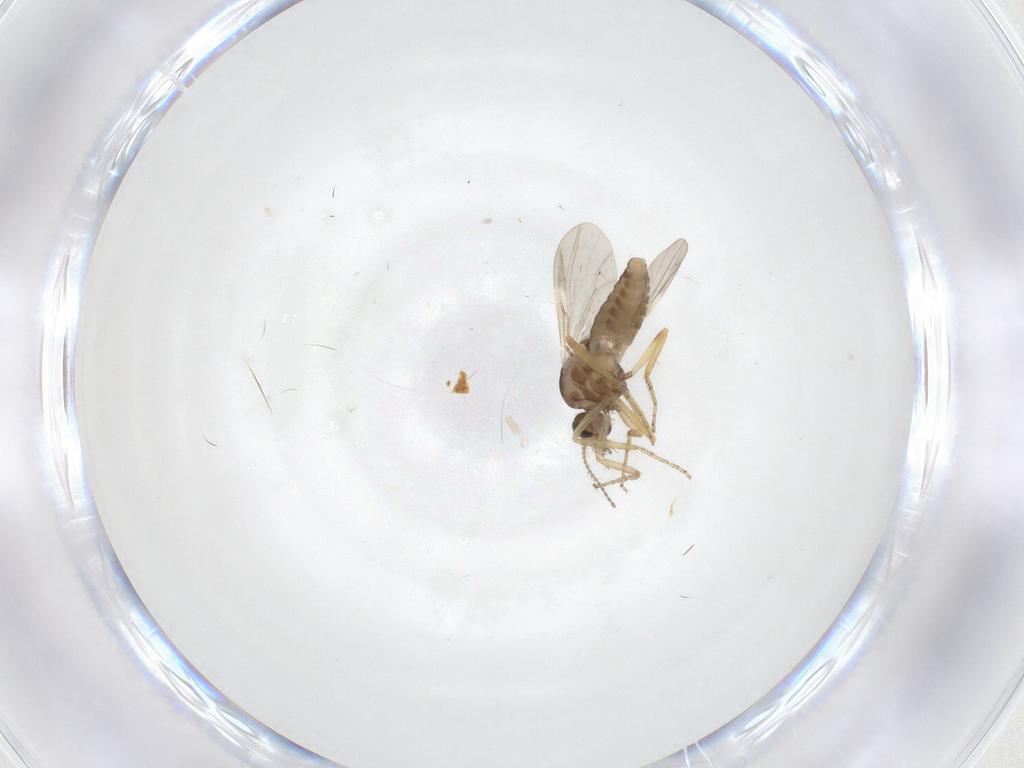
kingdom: Animalia
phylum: Arthropoda
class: Insecta
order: Diptera
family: Ceratopogonidae
